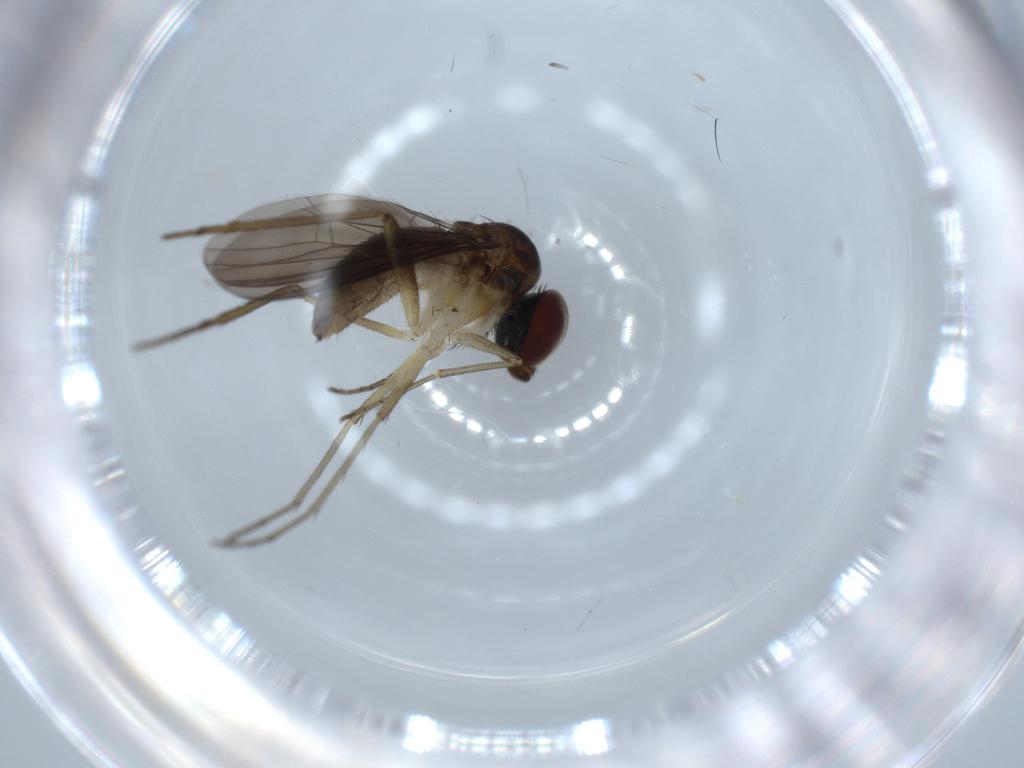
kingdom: Animalia
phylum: Arthropoda
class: Insecta
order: Diptera
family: Dolichopodidae
